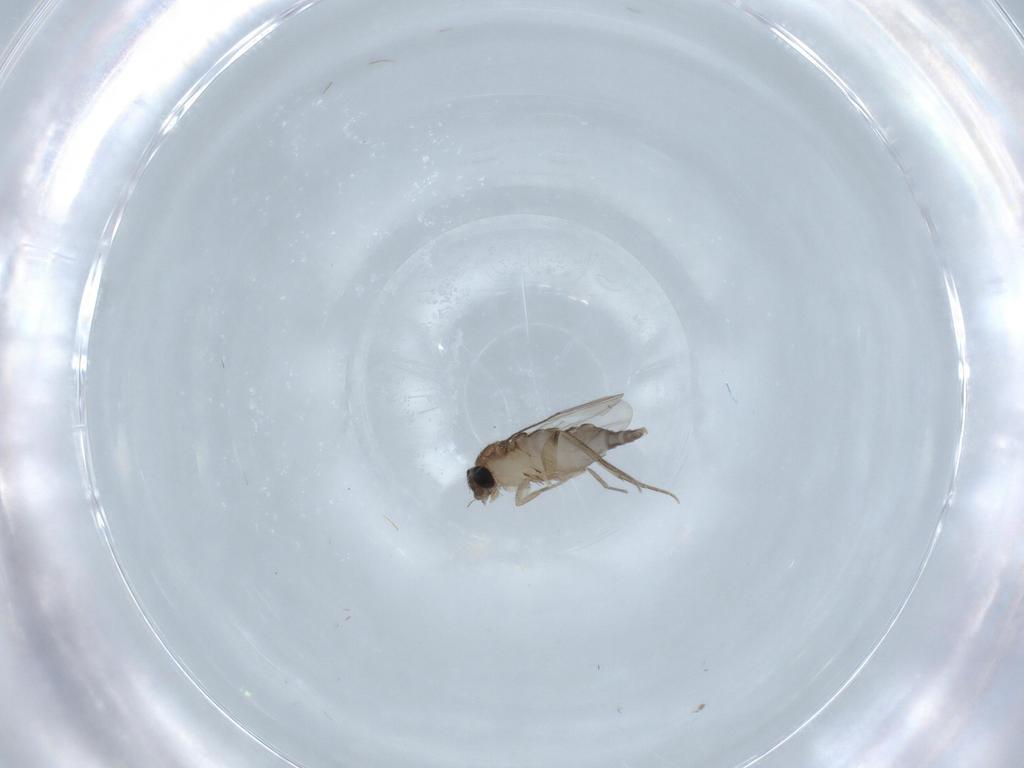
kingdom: Animalia
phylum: Arthropoda
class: Insecta
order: Diptera
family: Phoridae
